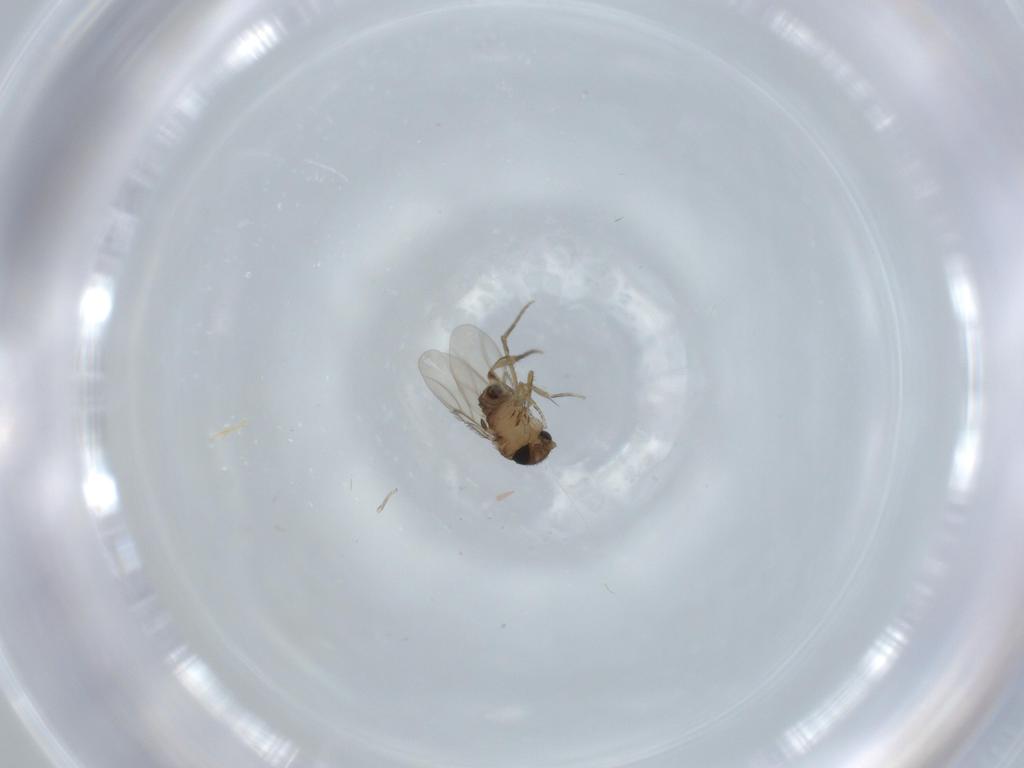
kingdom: Animalia
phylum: Arthropoda
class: Insecta
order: Diptera
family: Phoridae
